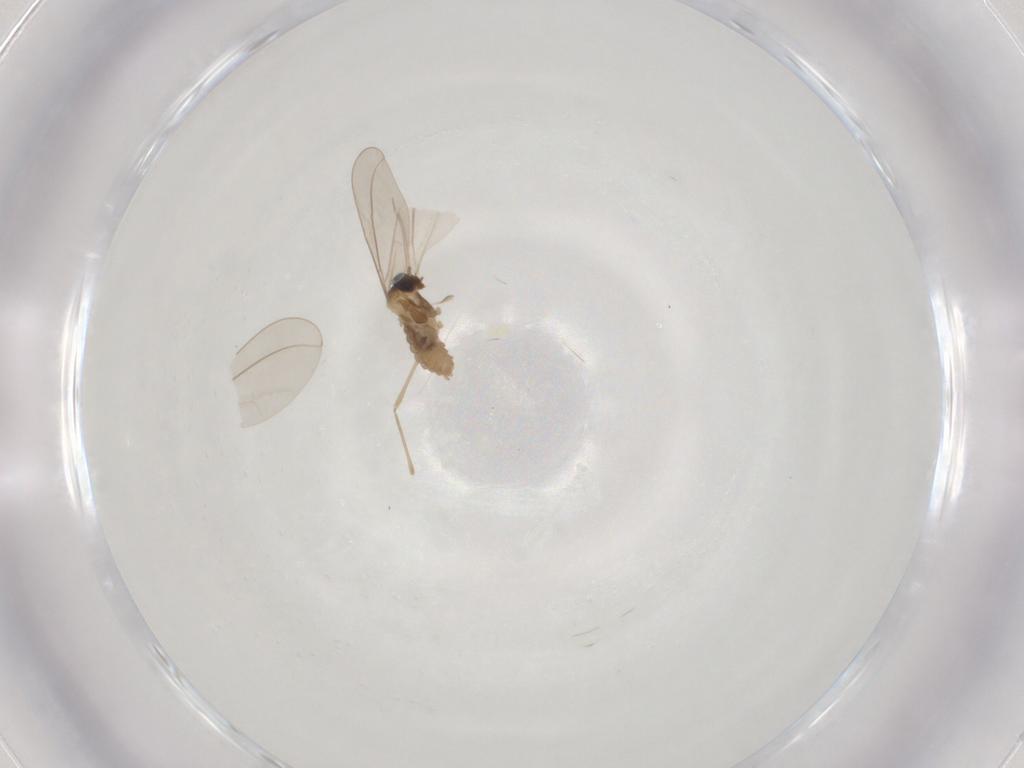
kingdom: Animalia
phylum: Arthropoda
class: Insecta
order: Diptera
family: Cecidomyiidae
